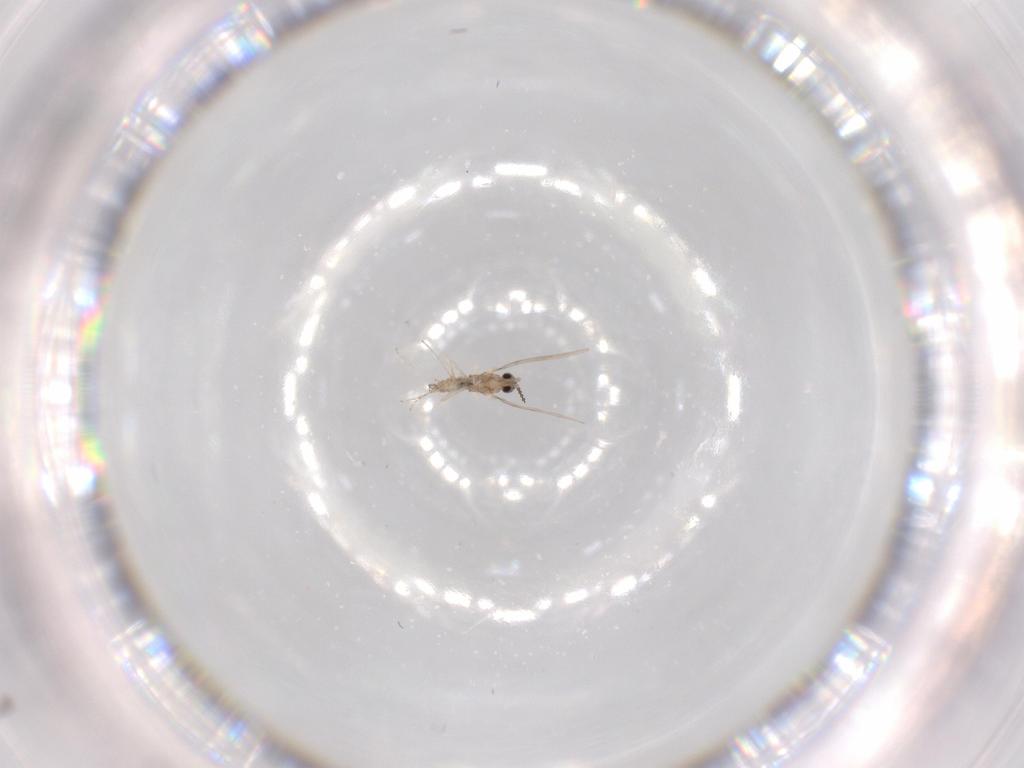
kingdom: Animalia
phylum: Arthropoda
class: Insecta
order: Diptera
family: Cecidomyiidae
